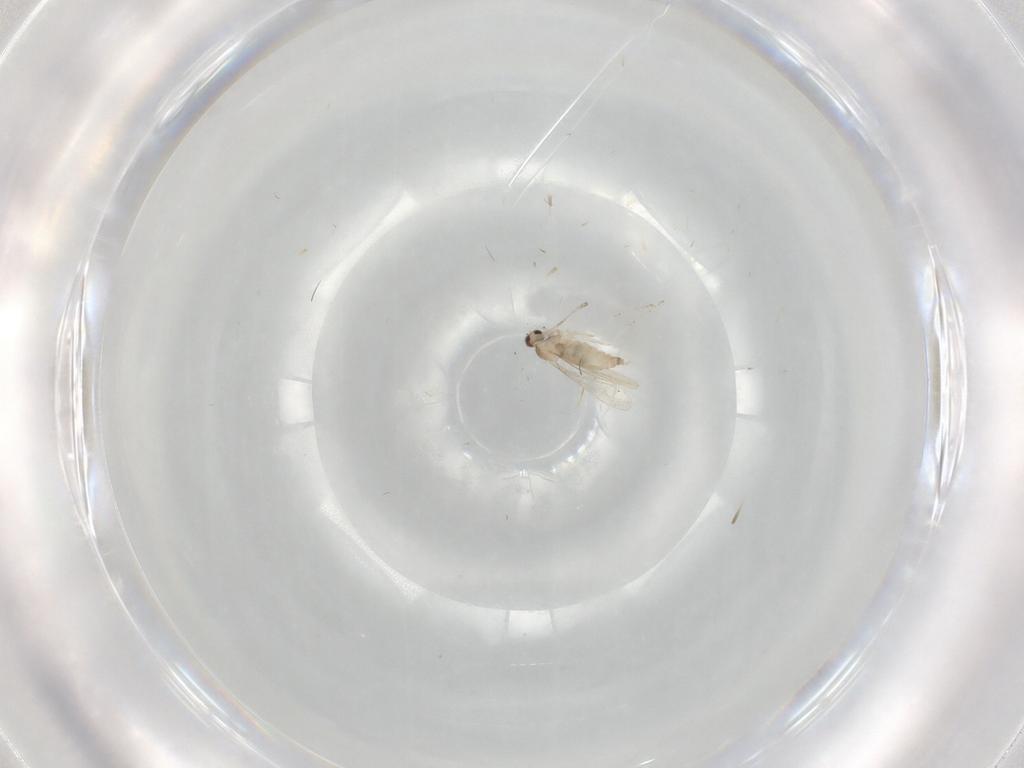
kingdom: Animalia
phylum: Arthropoda
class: Insecta
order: Diptera
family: Cecidomyiidae
